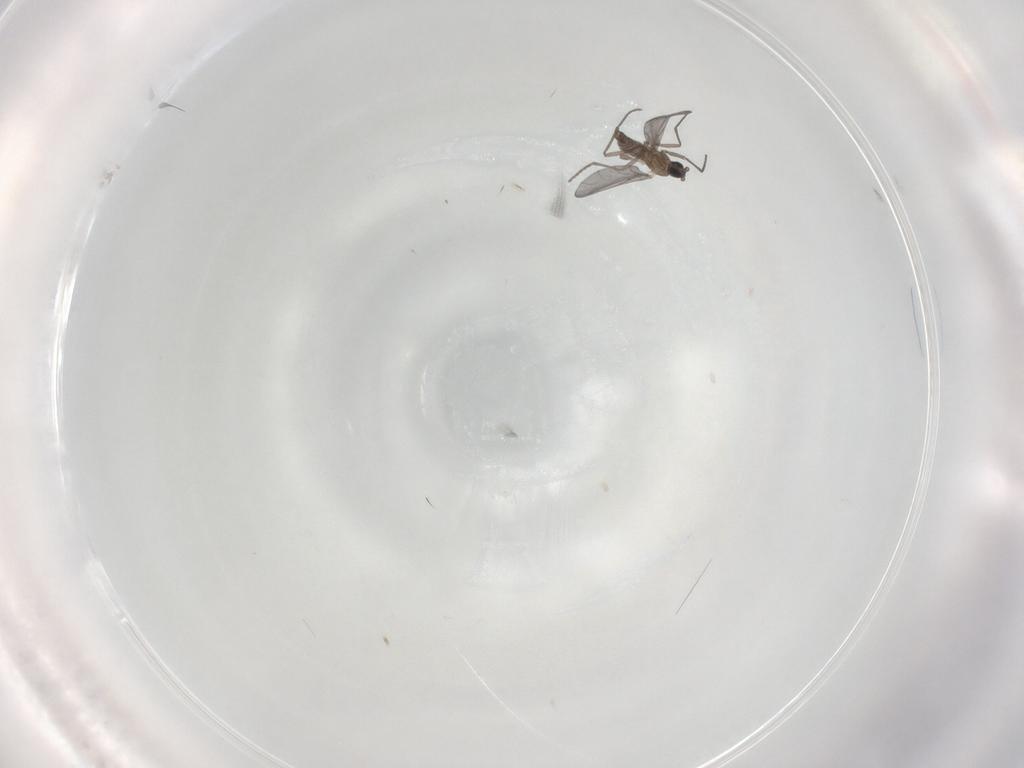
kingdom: Animalia
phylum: Arthropoda
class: Insecta
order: Diptera
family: Sciaridae
